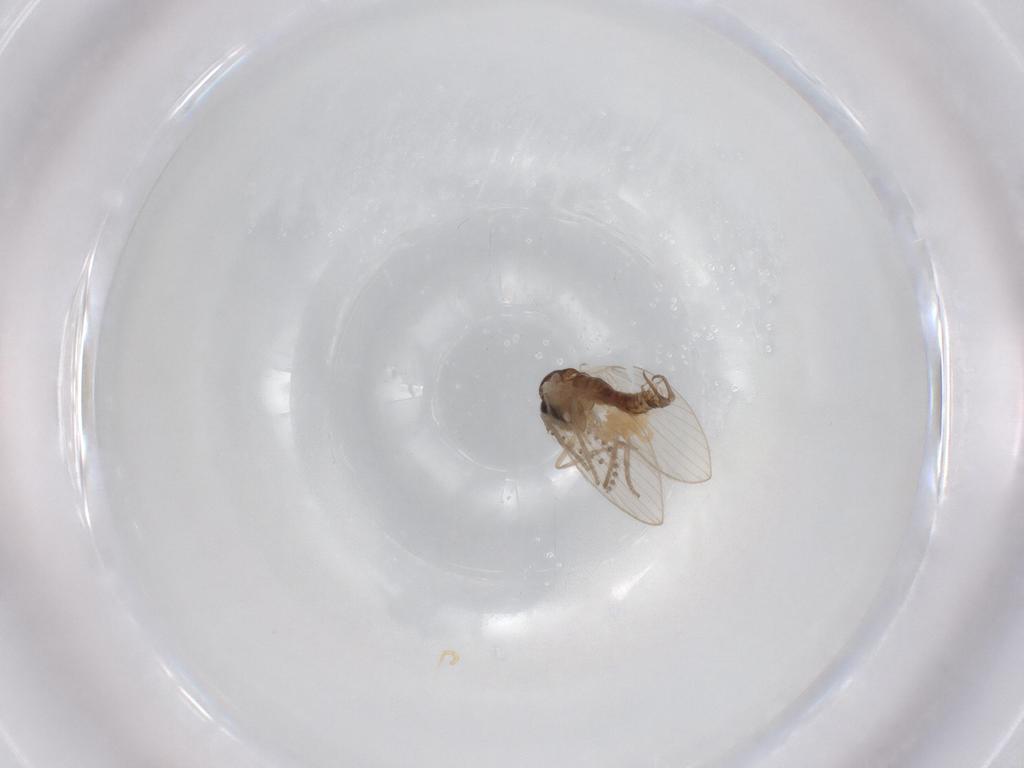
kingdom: Animalia
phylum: Arthropoda
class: Insecta
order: Diptera
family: Psychodidae
